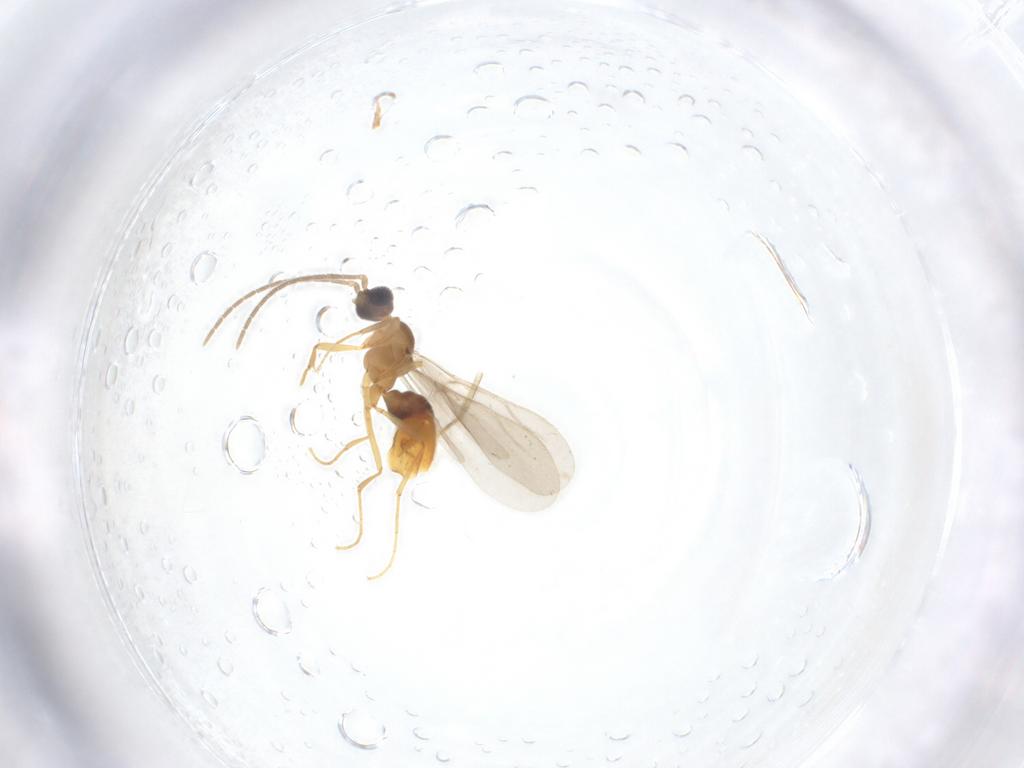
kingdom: Animalia
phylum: Arthropoda
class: Insecta
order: Hymenoptera
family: Formicidae
